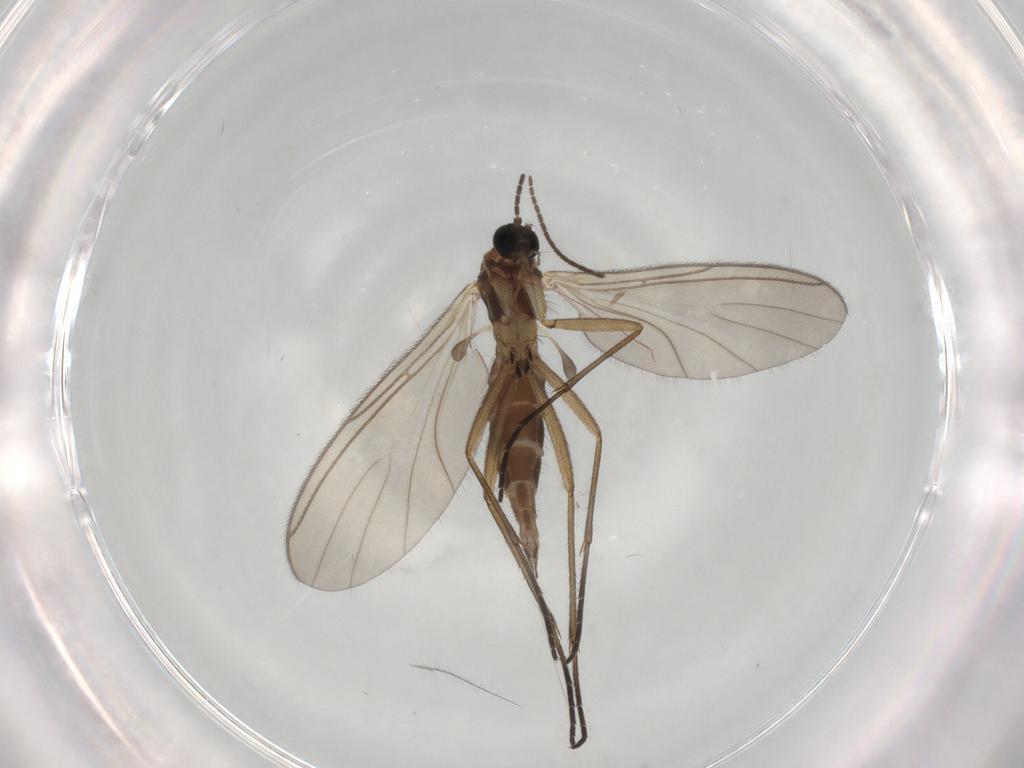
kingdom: Animalia
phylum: Arthropoda
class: Insecta
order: Diptera
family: Sciaridae
